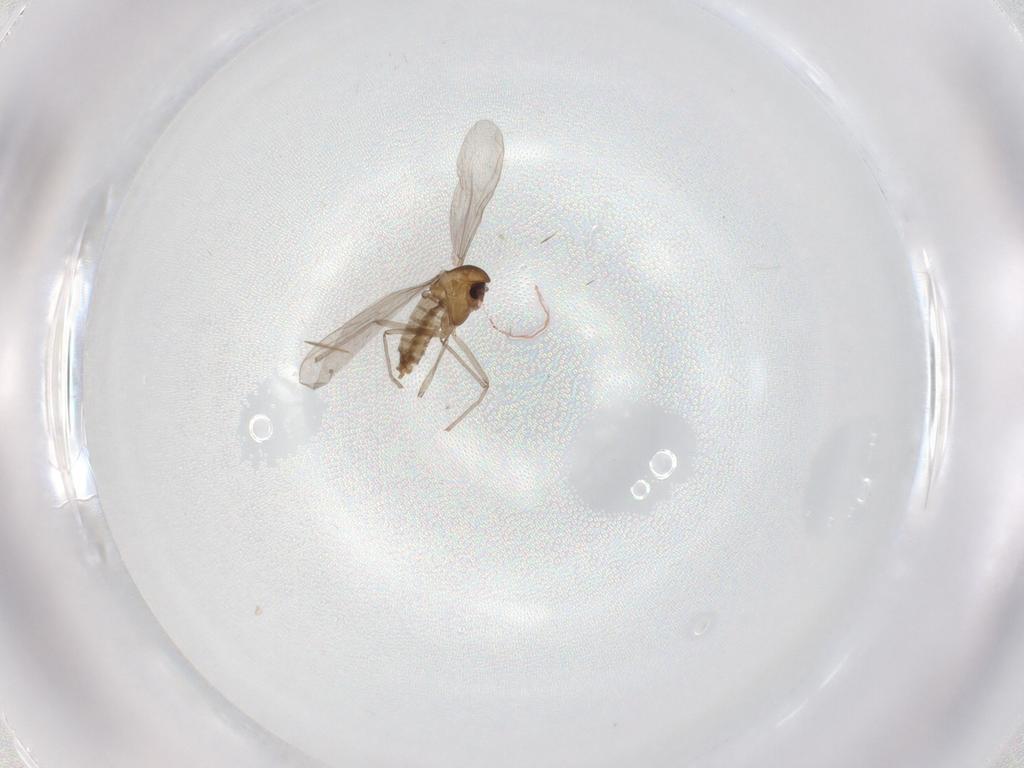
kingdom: Animalia
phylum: Arthropoda
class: Insecta
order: Diptera
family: Chironomidae
